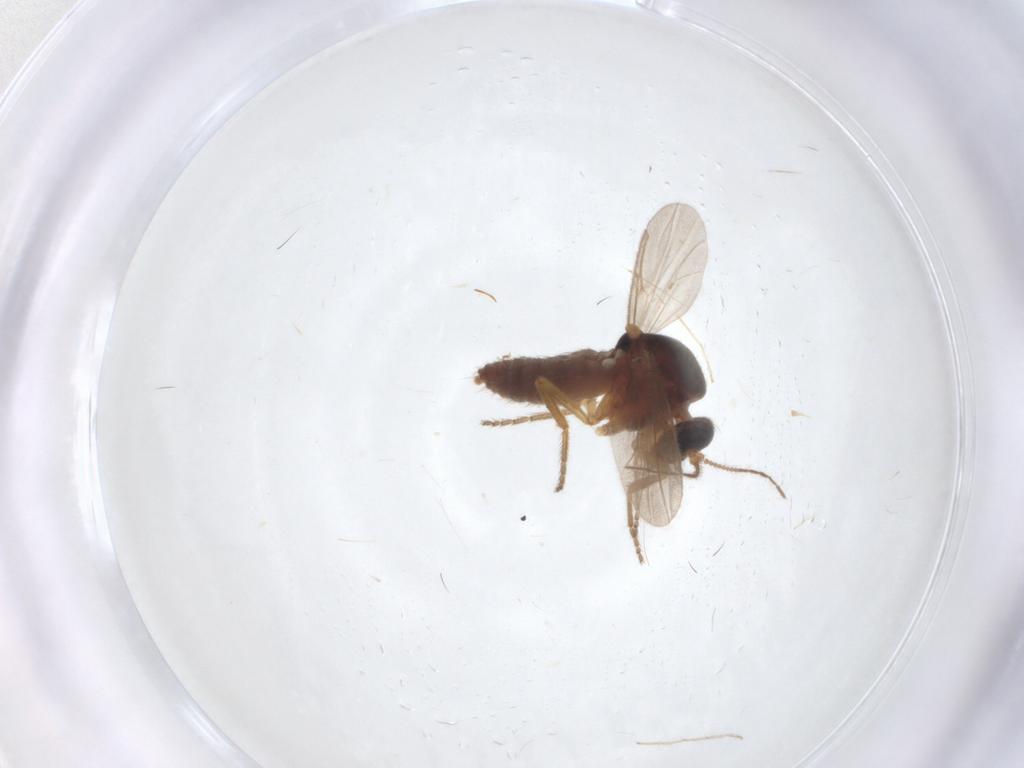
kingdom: Animalia
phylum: Arthropoda
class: Insecta
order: Diptera
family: Ceratopogonidae
